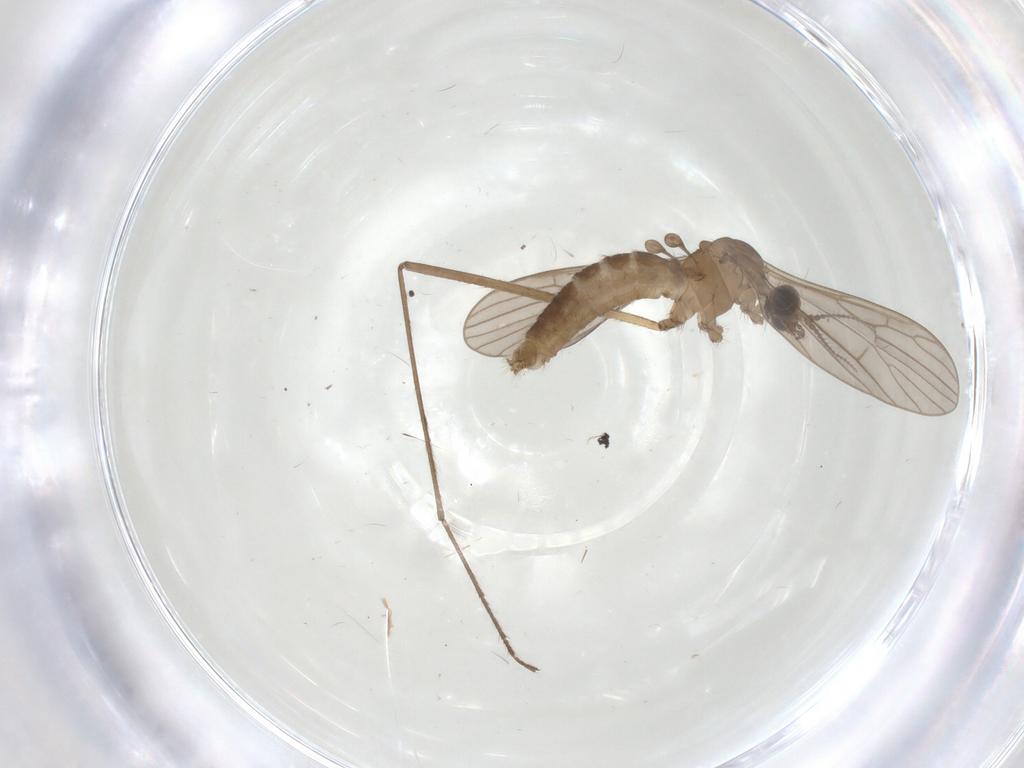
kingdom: Animalia
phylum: Arthropoda
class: Insecta
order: Diptera
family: Limoniidae
